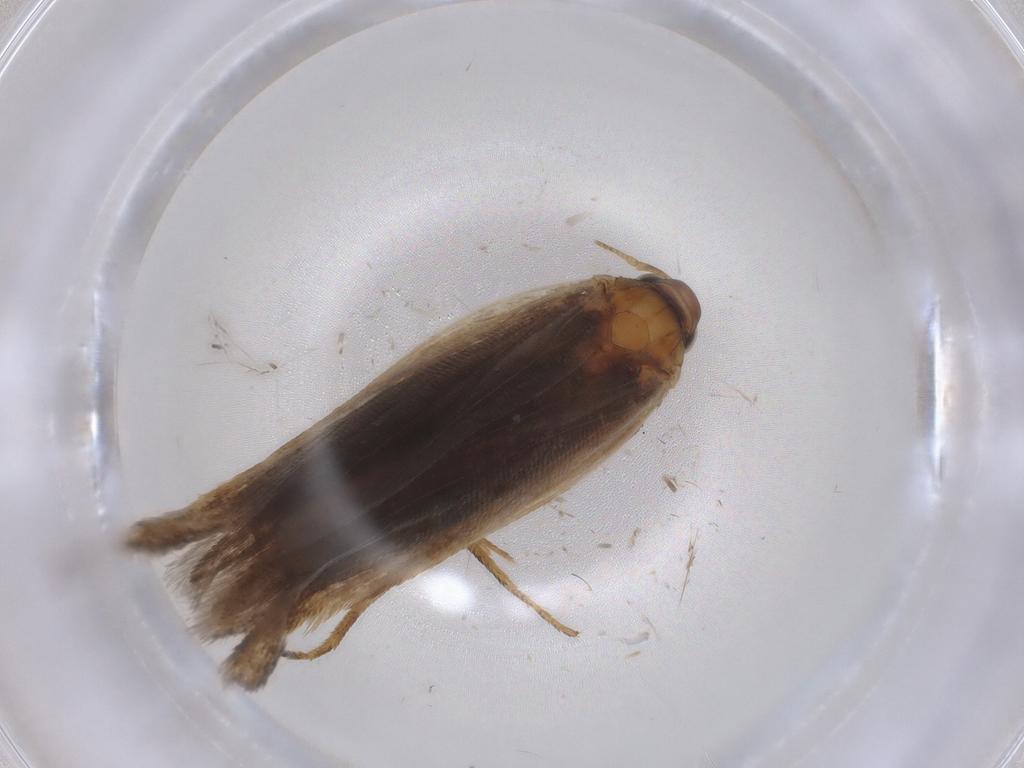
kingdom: Animalia
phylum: Arthropoda
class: Insecta
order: Lepidoptera
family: Gelechiidae
